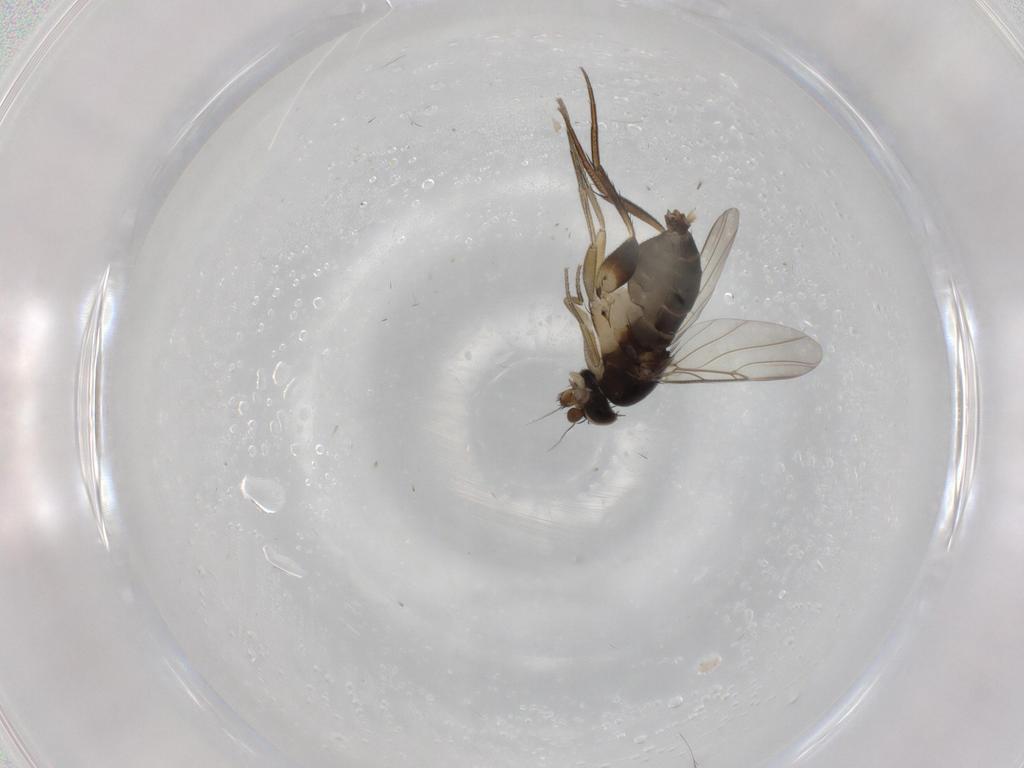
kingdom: Animalia
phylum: Arthropoda
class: Insecta
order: Diptera
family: Phoridae
